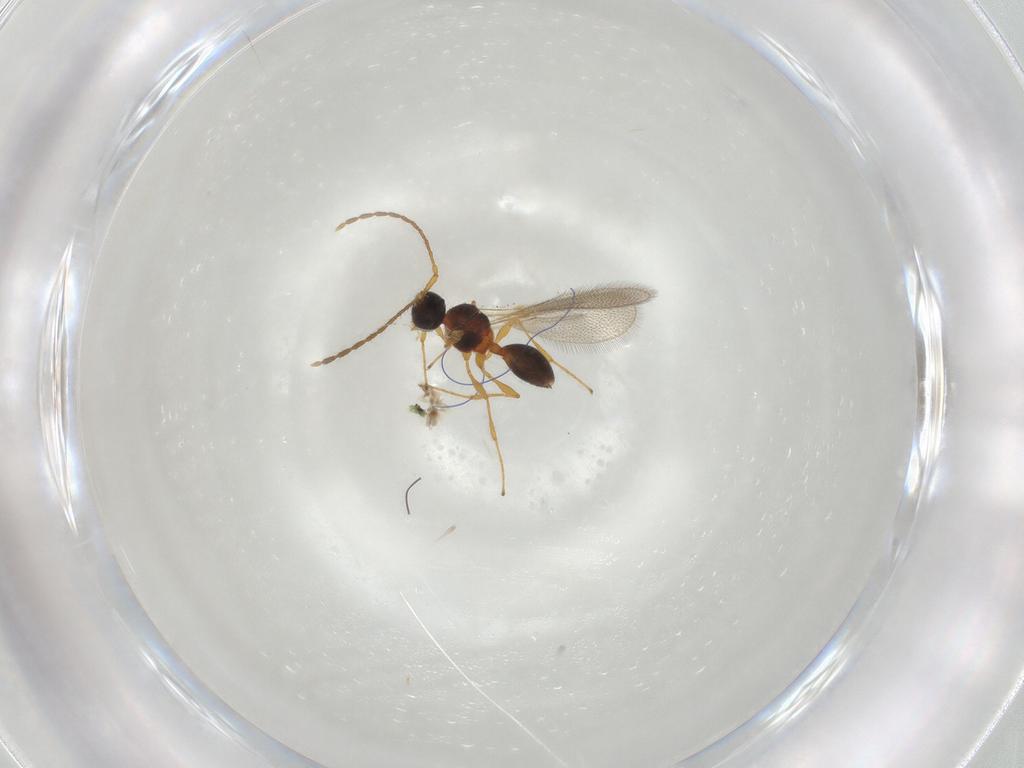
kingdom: Animalia
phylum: Arthropoda
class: Insecta
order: Hymenoptera
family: Diapriidae
